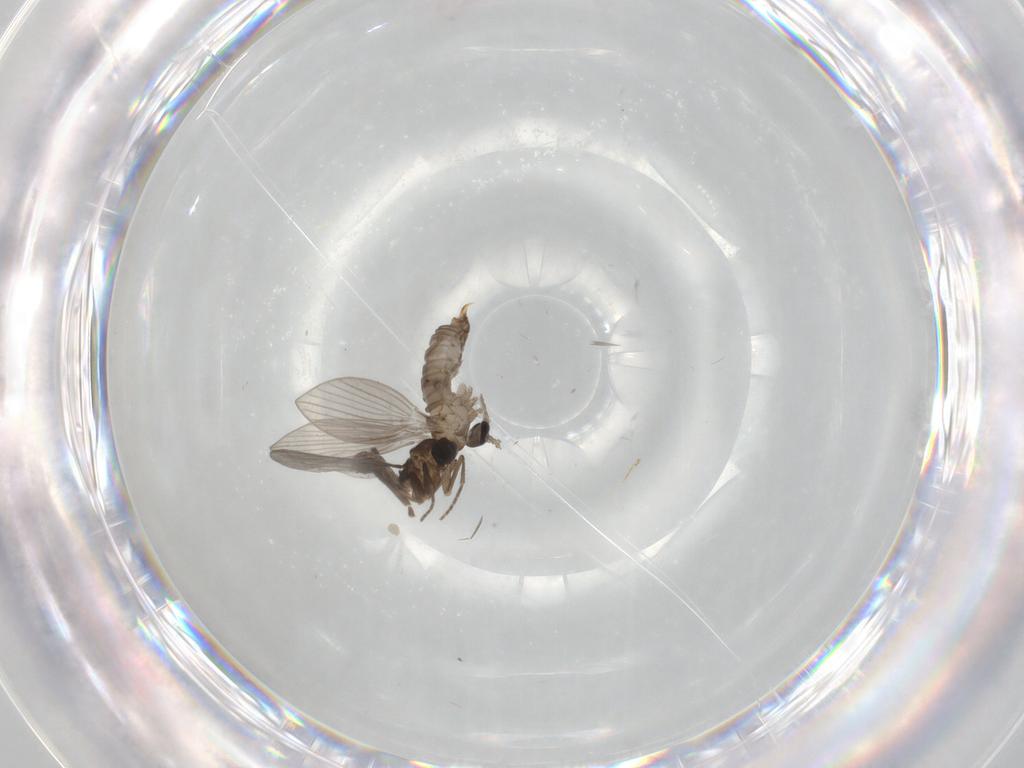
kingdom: Animalia
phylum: Arthropoda
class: Insecta
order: Diptera
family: Psychodidae
